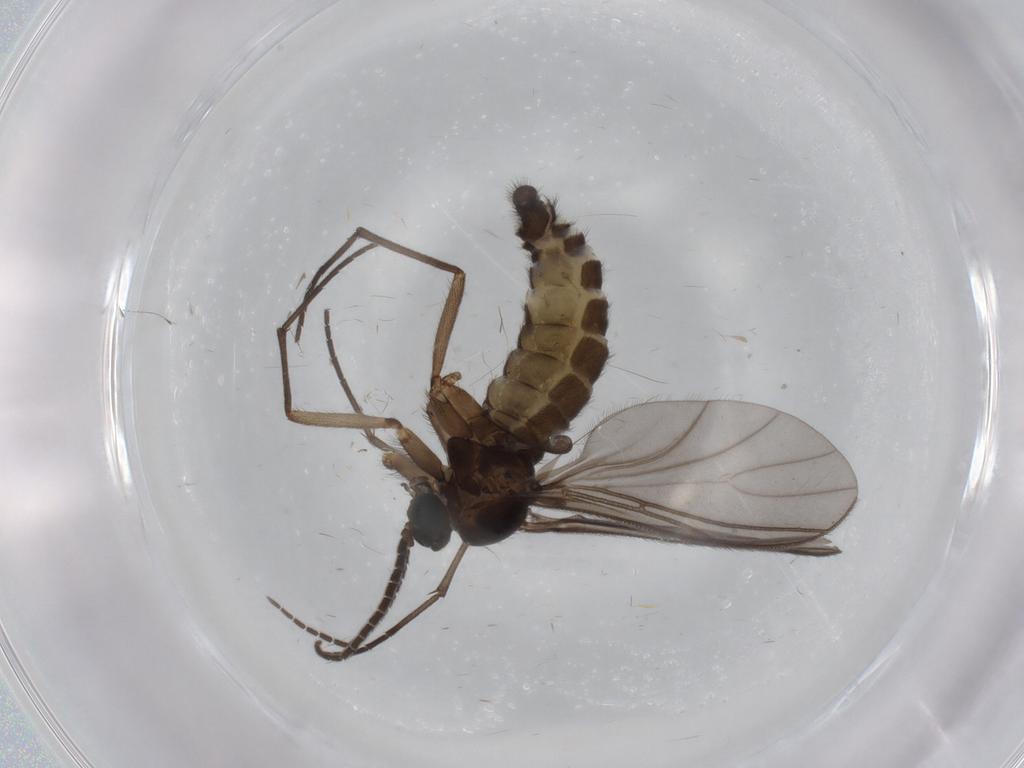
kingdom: Animalia
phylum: Arthropoda
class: Insecta
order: Diptera
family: Sciaridae
